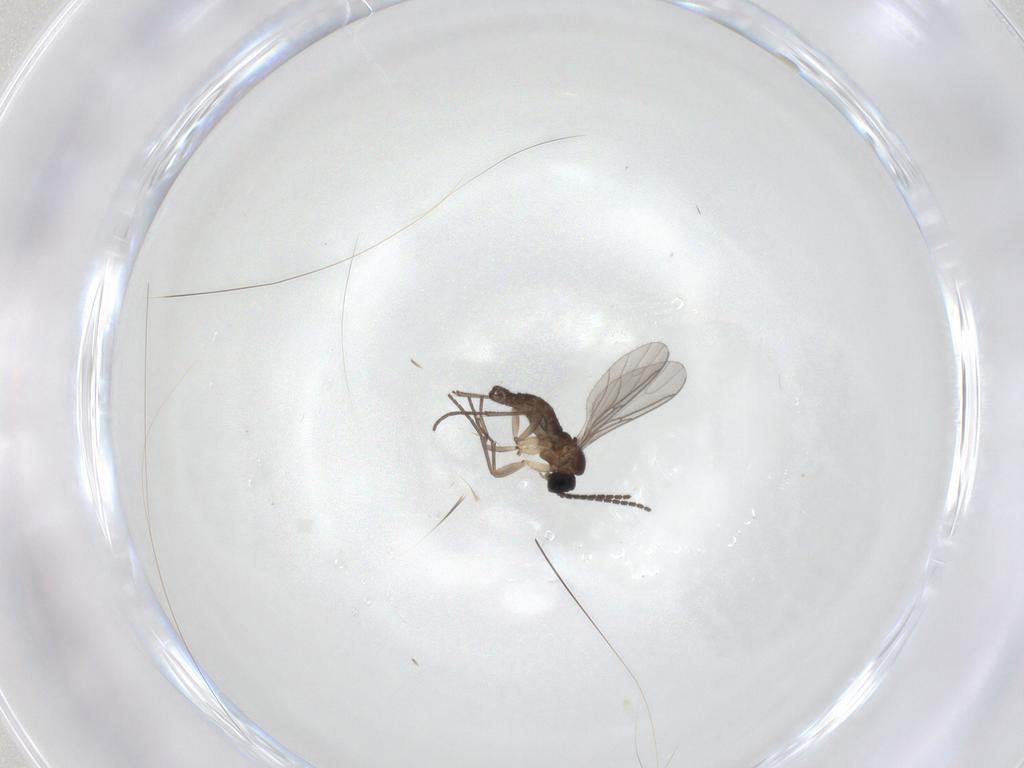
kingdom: Animalia
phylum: Arthropoda
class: Insecta
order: Diptera
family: Sciaridae
